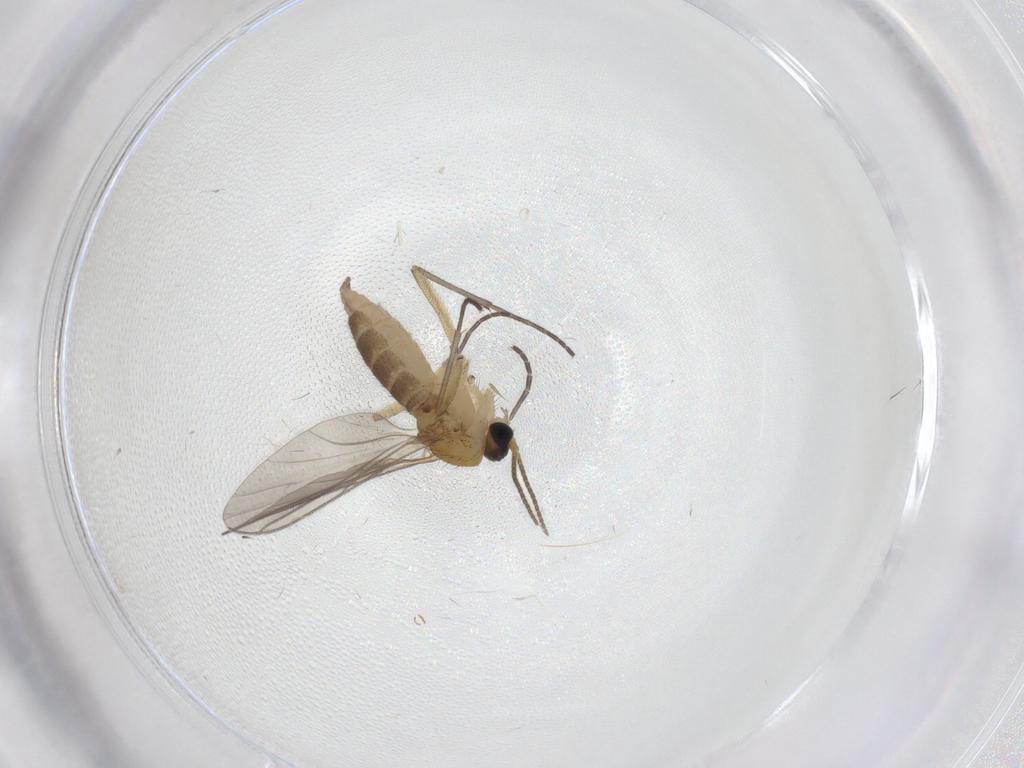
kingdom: Animalia
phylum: Arthropoda
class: Insecta
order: Diptera
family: Sciaridae
